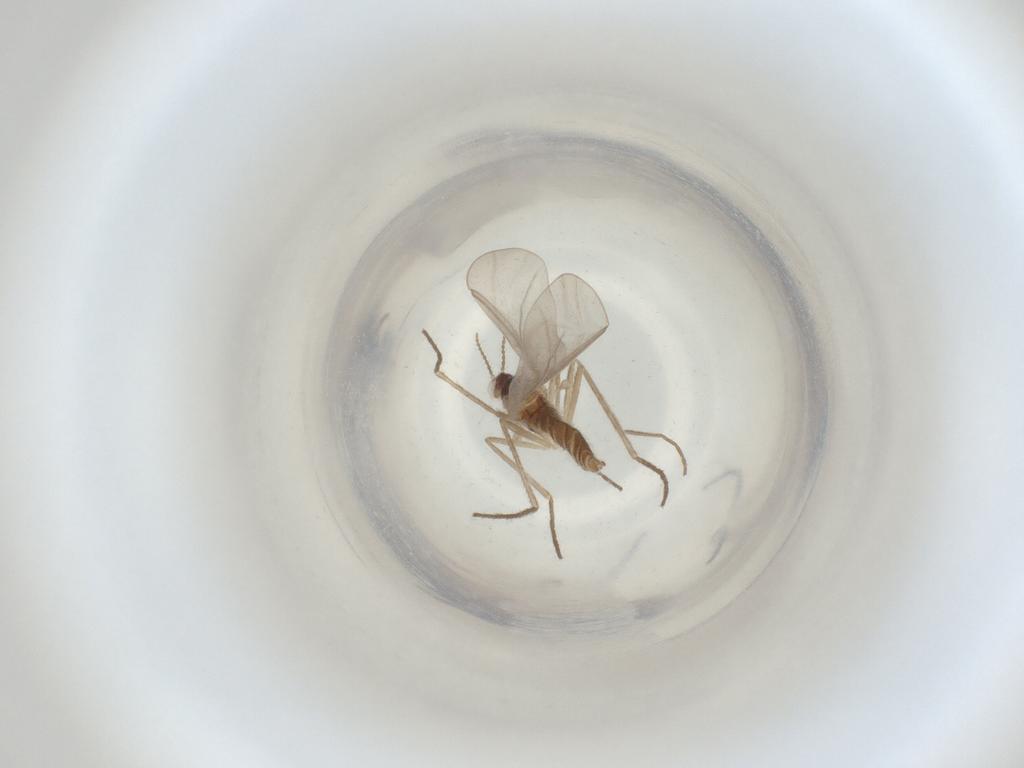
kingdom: Animalia
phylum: Arthropoda
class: Insecta
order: Diptera
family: Cecidomyiidae
